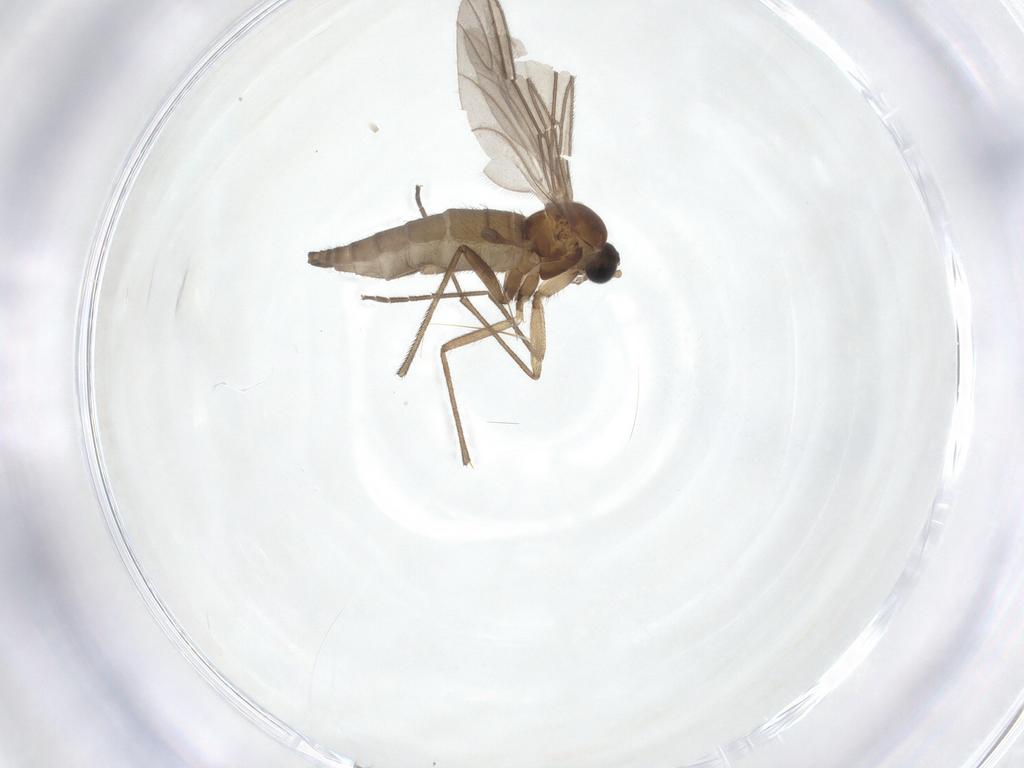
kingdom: Animalia
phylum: Arthropoda
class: Insecta
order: Diptera
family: Sciaridae
